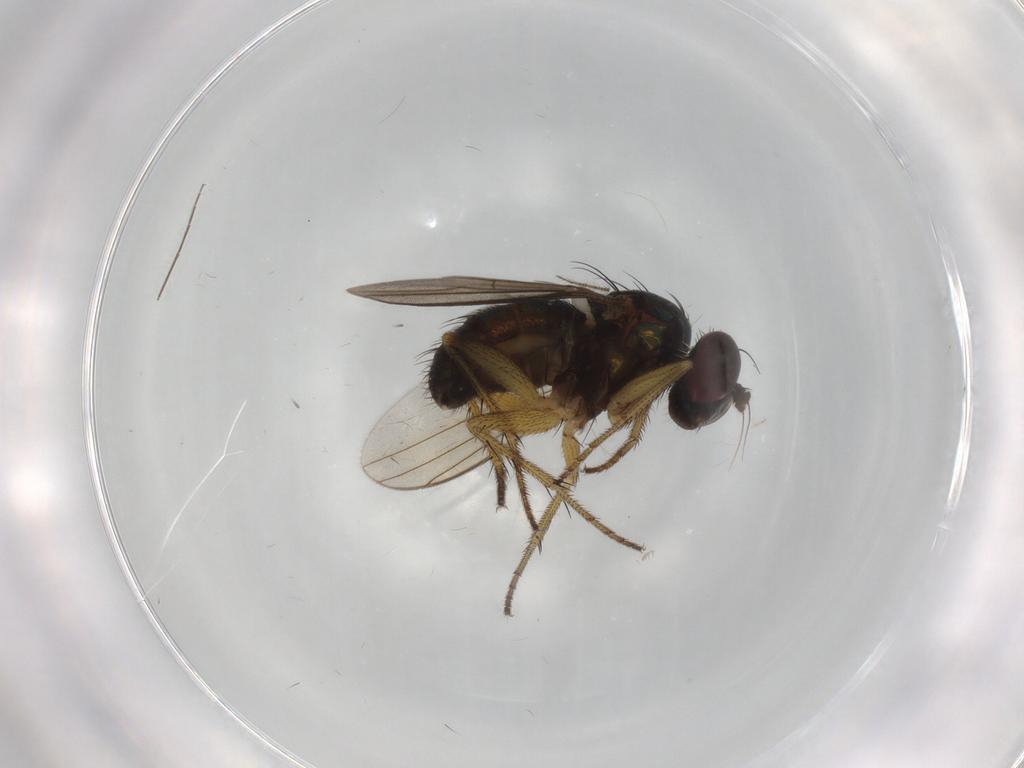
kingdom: Animalia
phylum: Arthropoda
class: Insecta
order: Diptera
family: Dolichopodidae
